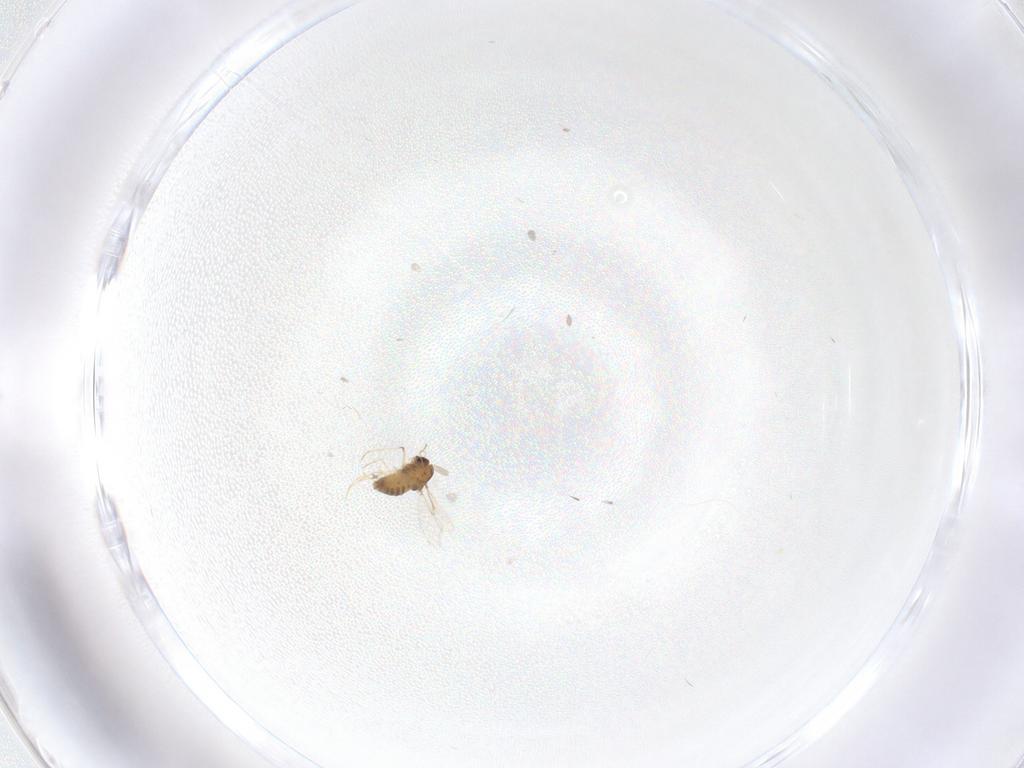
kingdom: Animalia
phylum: Arthropoda
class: Insecta
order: Diptera
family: Chironomidae
